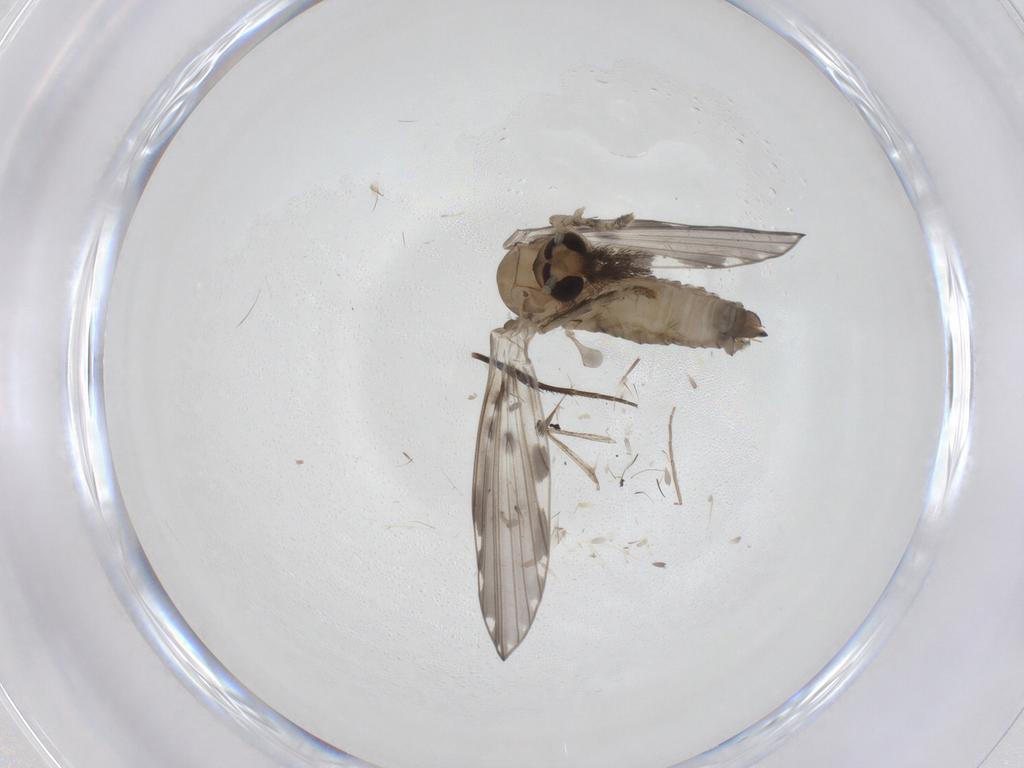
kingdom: Animalia
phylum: Arthropoda
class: Insecta
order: Diptera
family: Psychodidae
